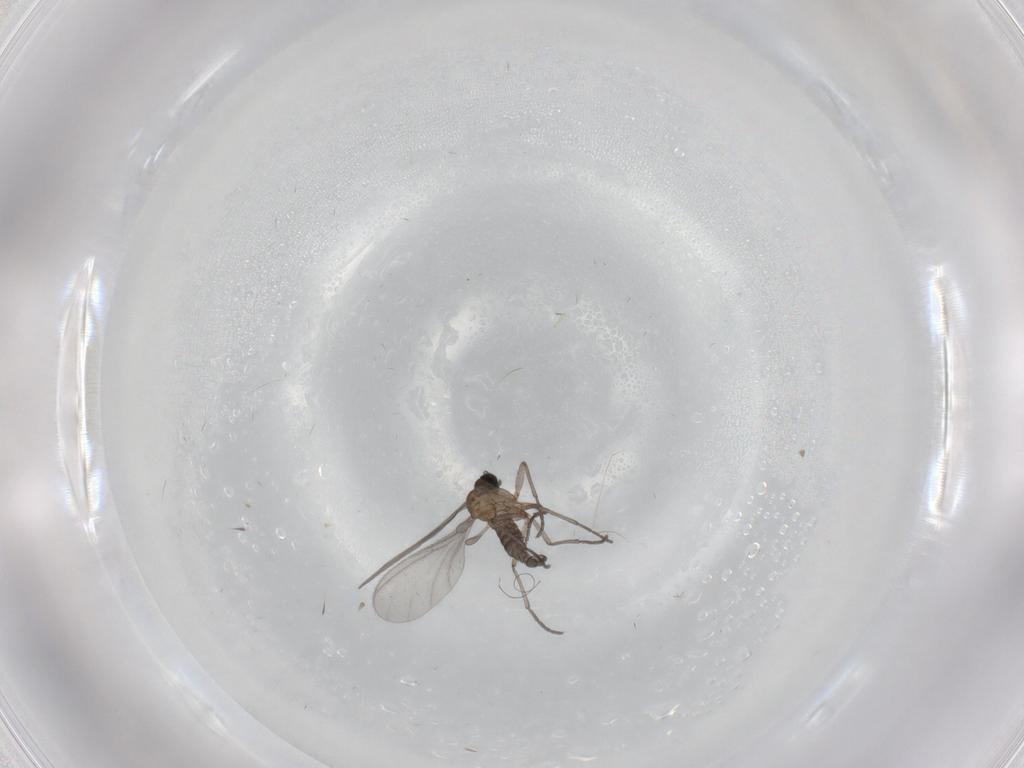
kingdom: Animalia
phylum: Arthropoda
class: Insecta
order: Diptera
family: Sciaridae
